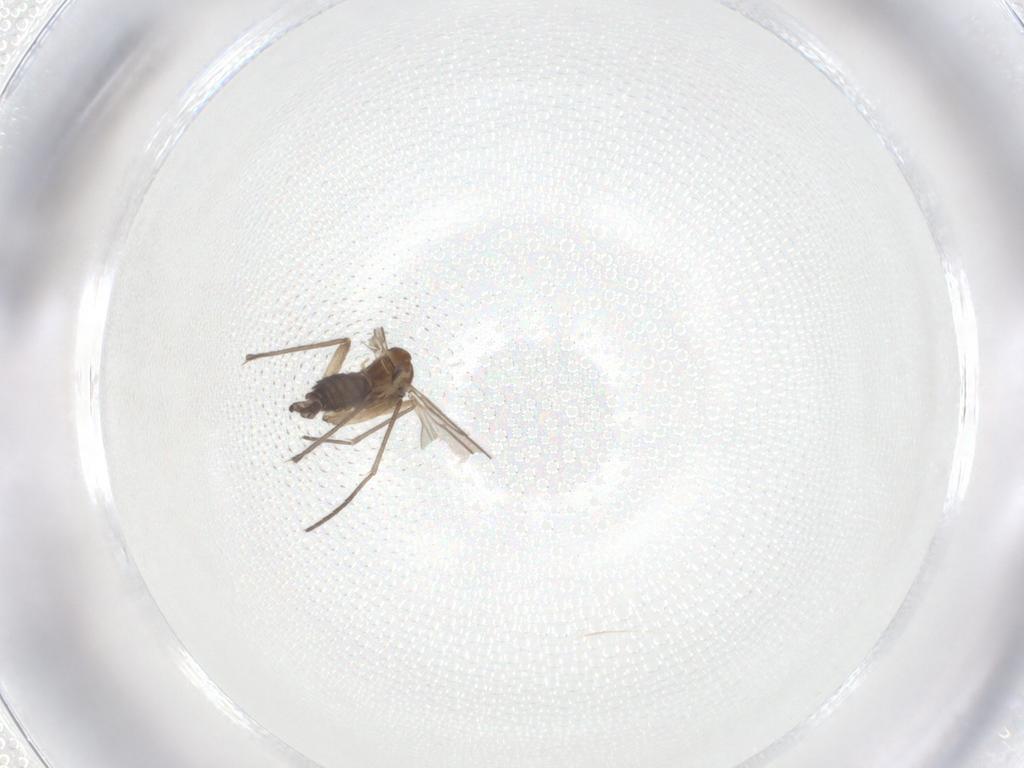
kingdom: Animalia
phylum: Arthropoda
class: Insecta
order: Diptera
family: Sciaridae
